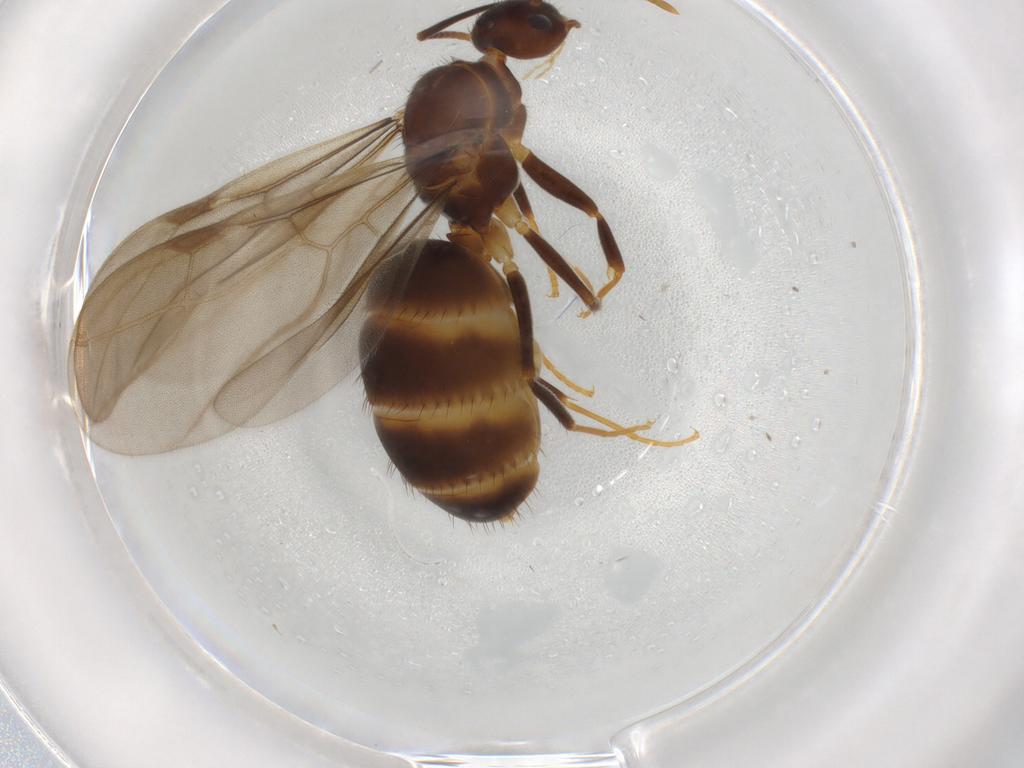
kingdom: Animalia
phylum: Arthropoda
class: Insecta
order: Hymenoptera
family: Formicidae
